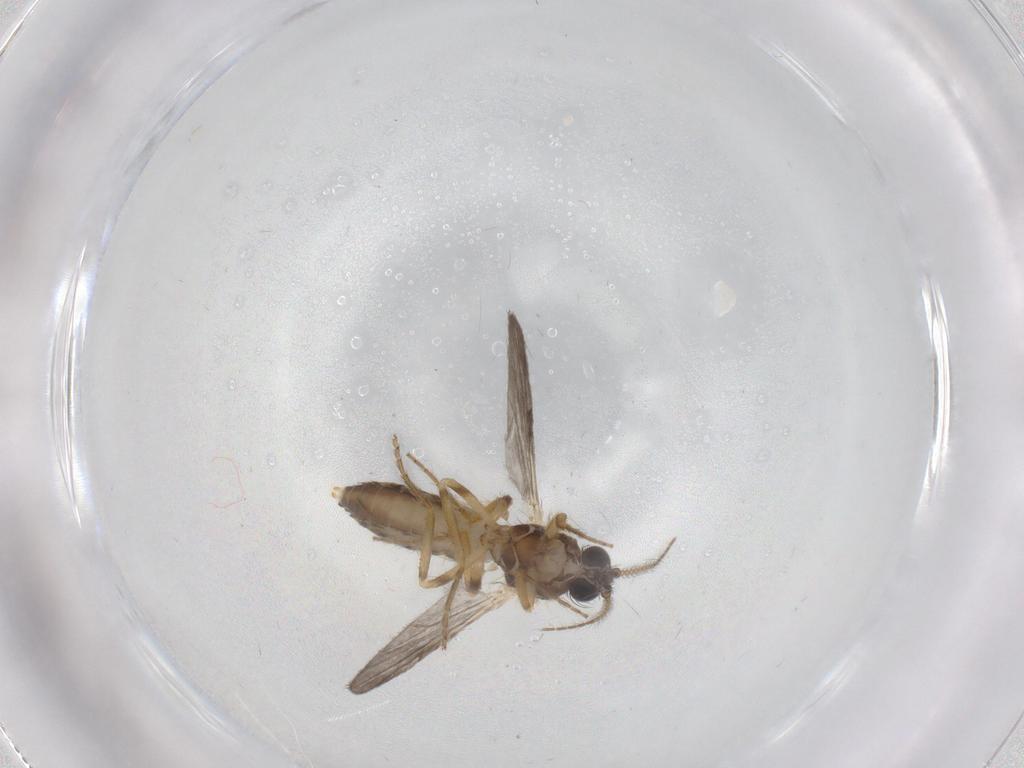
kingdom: Animalia
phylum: Arthropoda
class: Insecta
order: Diptera
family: Ceratopogonidae
